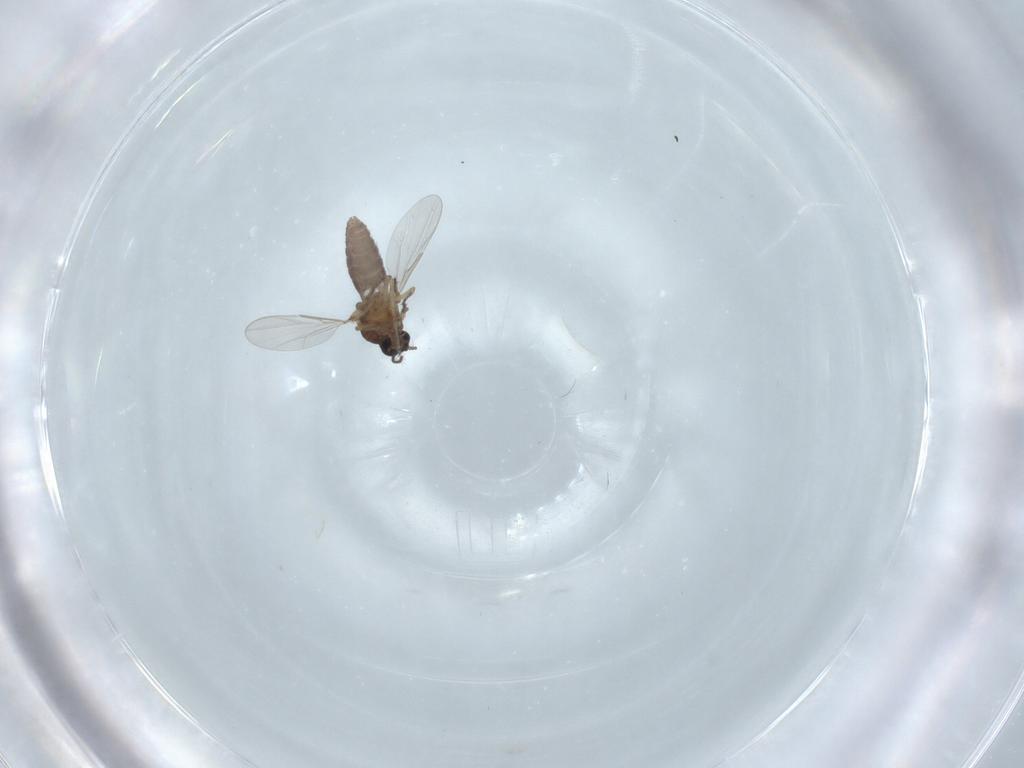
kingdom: Animalia
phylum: Arthropoda
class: Insecta
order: Diptera
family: Ceratopogonidae
